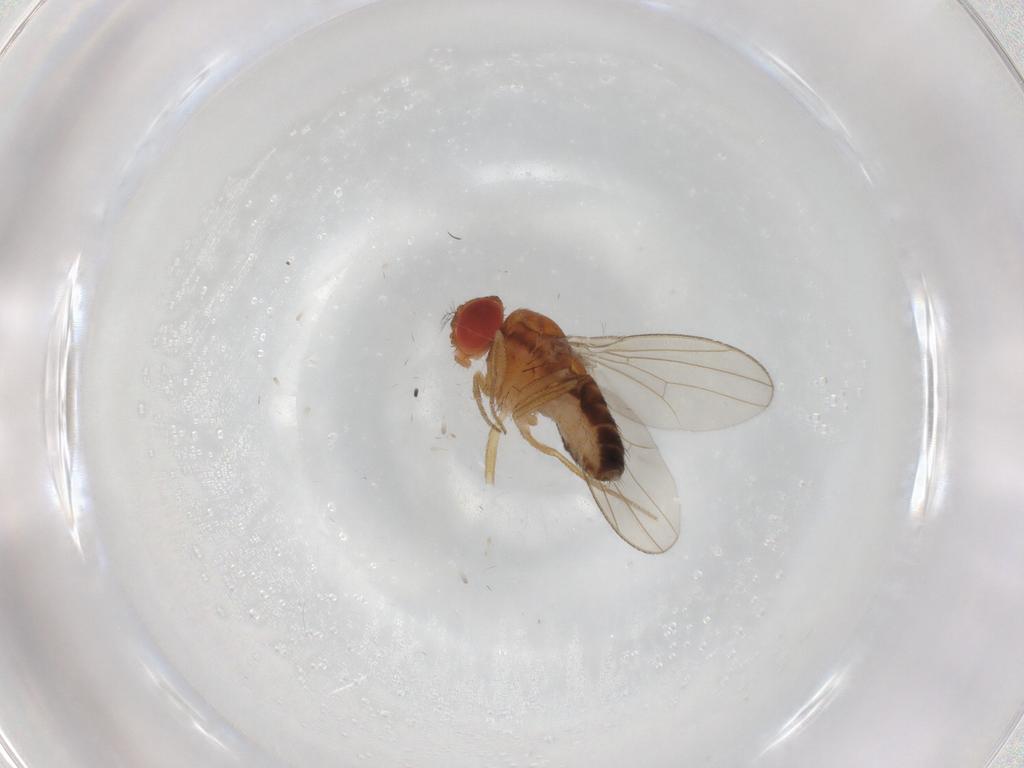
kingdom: Animalia
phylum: Arthropoda
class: Insecta
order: Diptera
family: Drosophilidae
